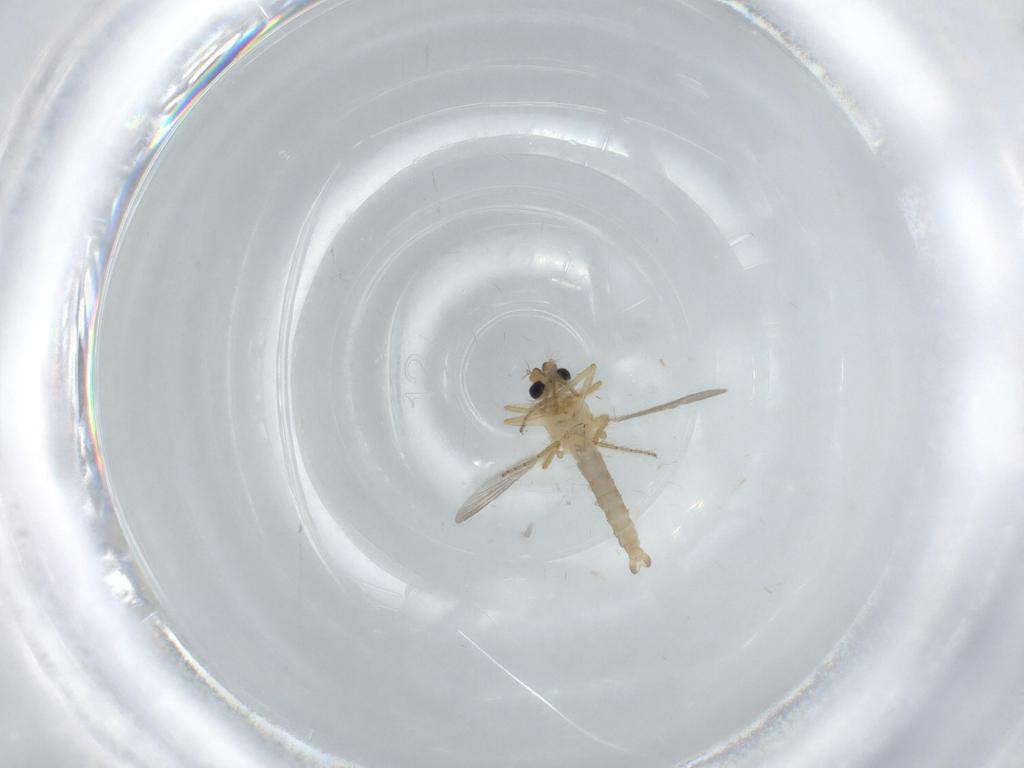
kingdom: Animalia
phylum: Arthropoda
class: Insecta
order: Diptera
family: Ceratopogonidae
